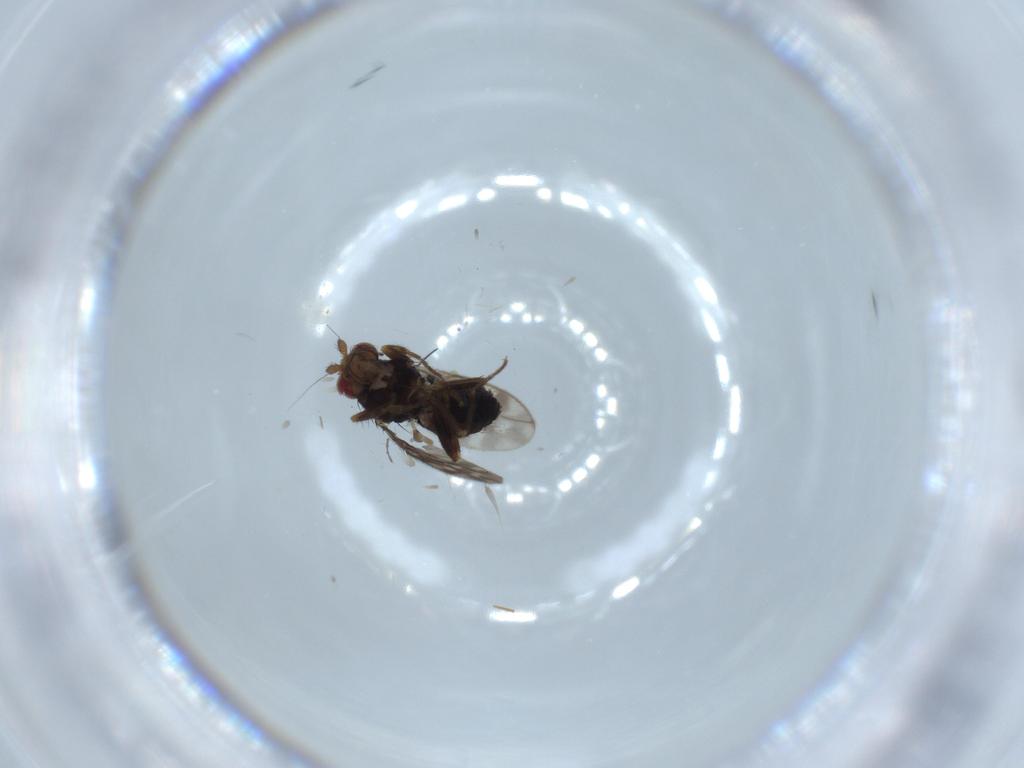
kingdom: Animalia
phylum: Arthropoda
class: Insecta
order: Diptera
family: Sphaeroceridae
